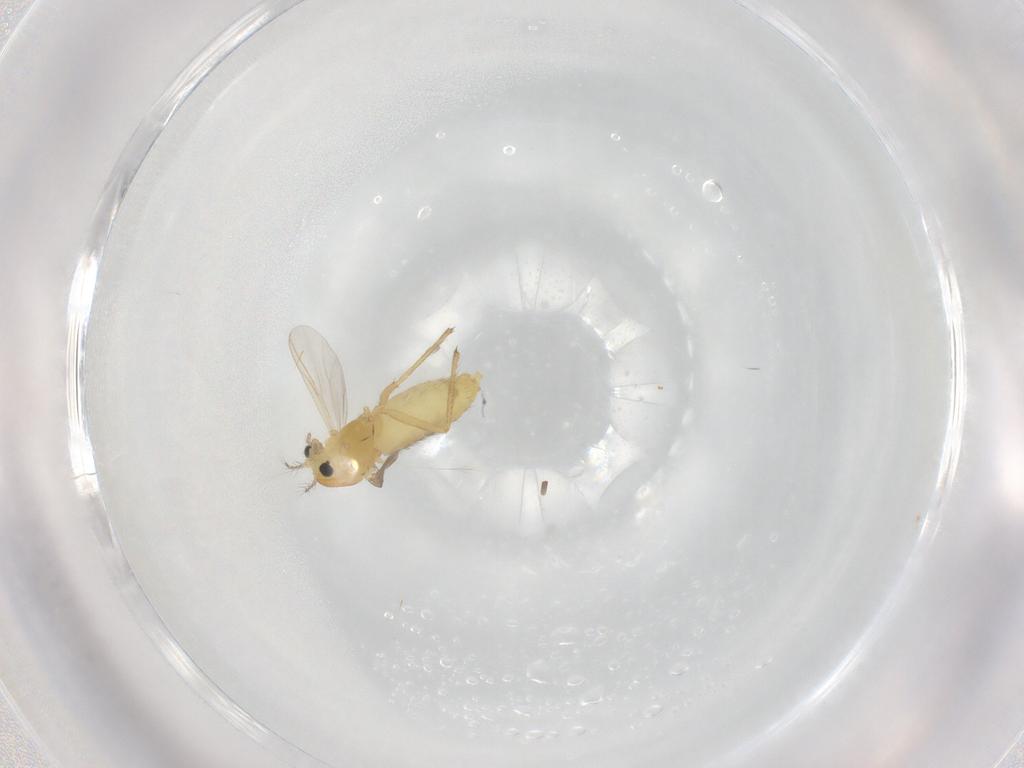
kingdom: Animalia
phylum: Arthropoda
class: Insecta
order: Diptera
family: Chironomidae
